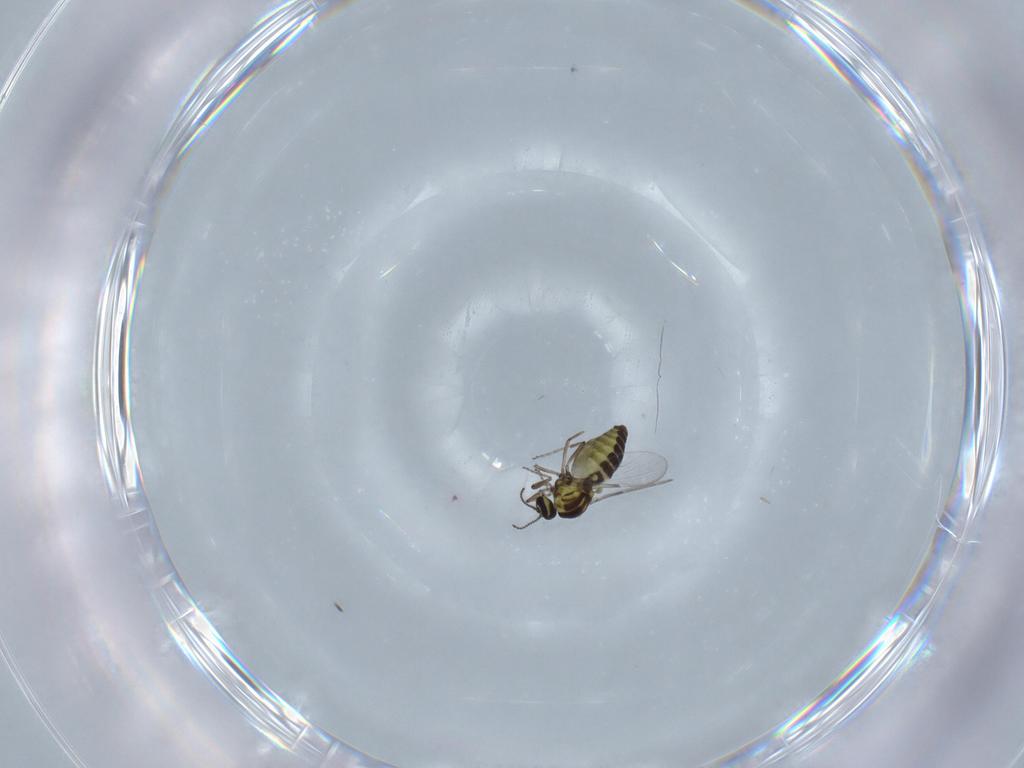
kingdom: Animalia
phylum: Arthropoda
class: Insecta
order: Diptera
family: Ceratopogonidae
